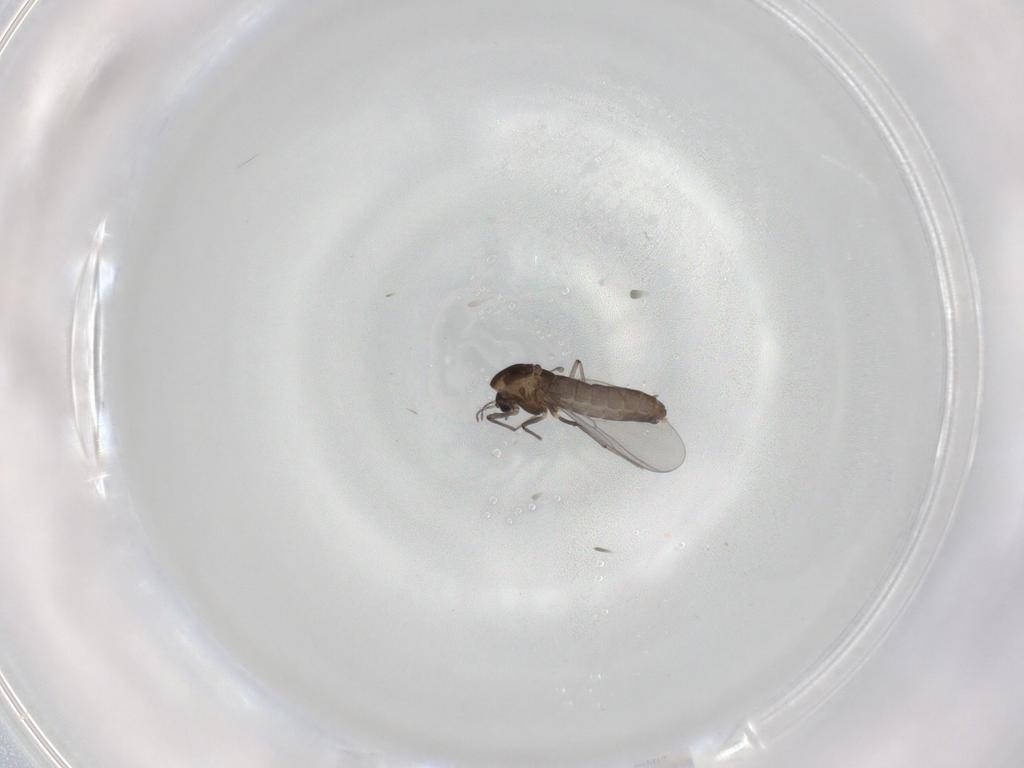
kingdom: Animalia
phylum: Arthropoda
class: Insecta
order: Diptera
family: Chironomidae
